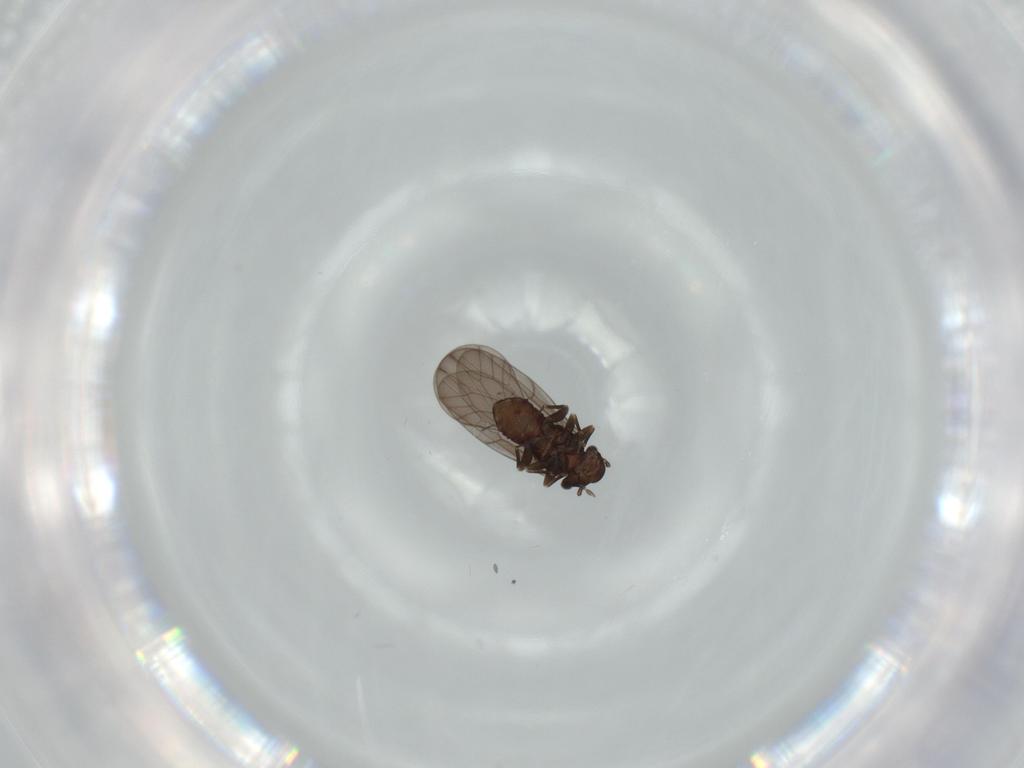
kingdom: Animalia
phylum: Arthropoda
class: Insecta
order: Psocodea
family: Lepidopsocidae
